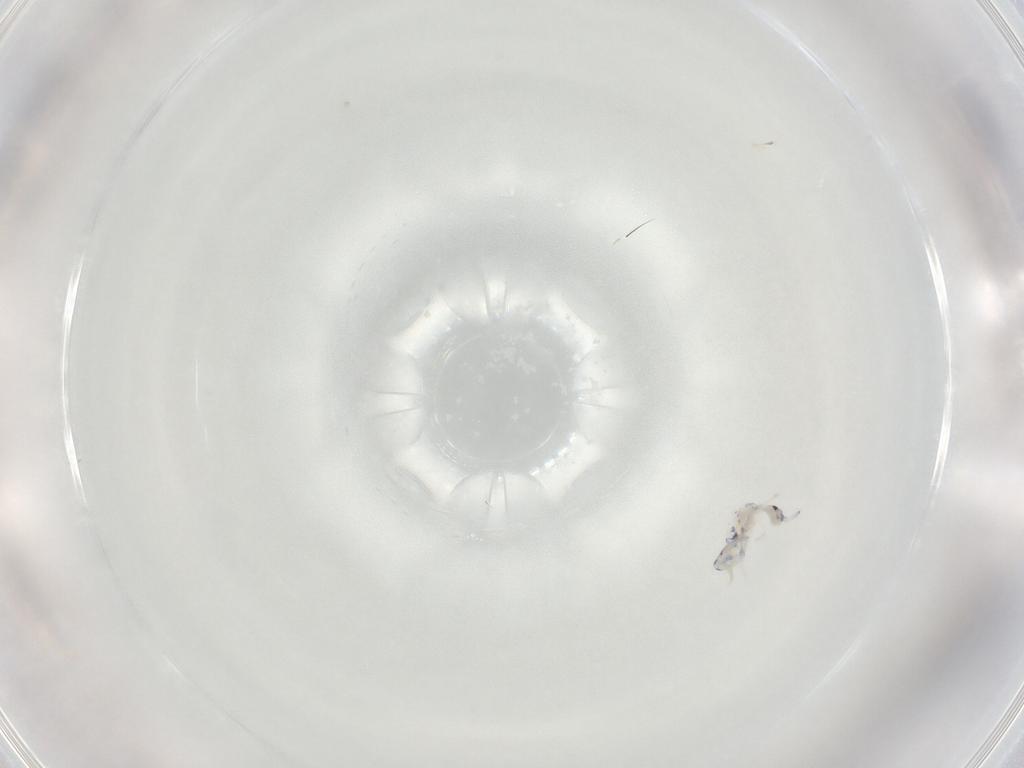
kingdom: Animalia
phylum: Arthropoda
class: Collembola
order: Entomobryomorpha
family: Entomobryidae
